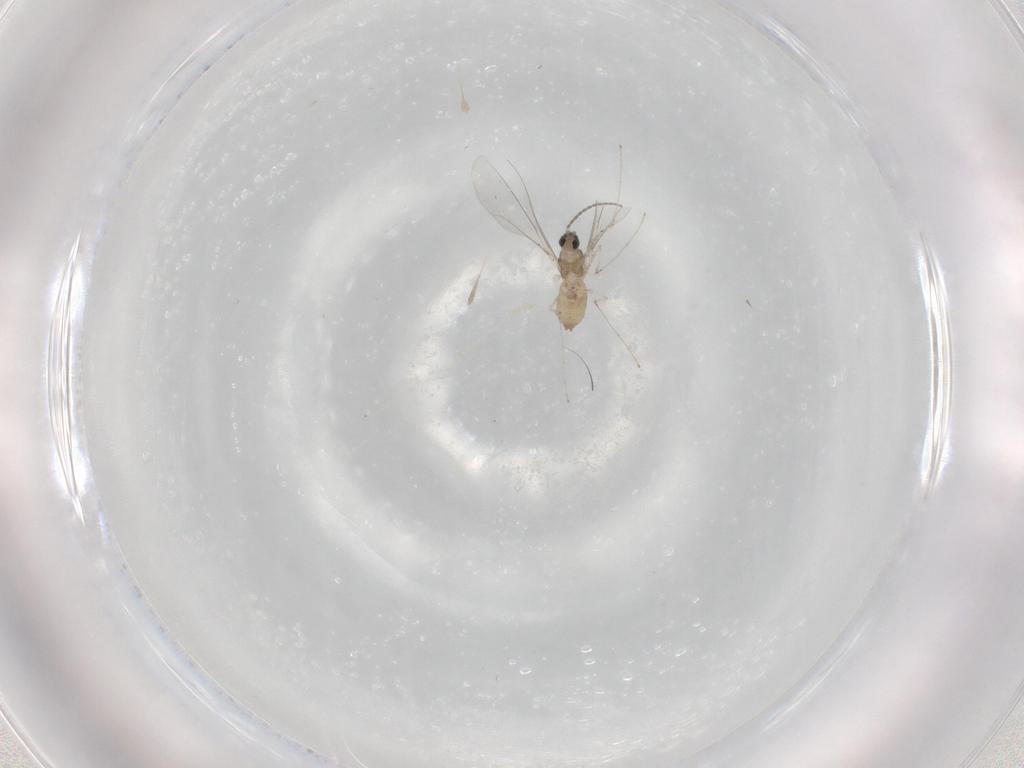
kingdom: Animalia
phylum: Arthropoda
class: Insecta
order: Diptera
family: Cecidomyiidae
